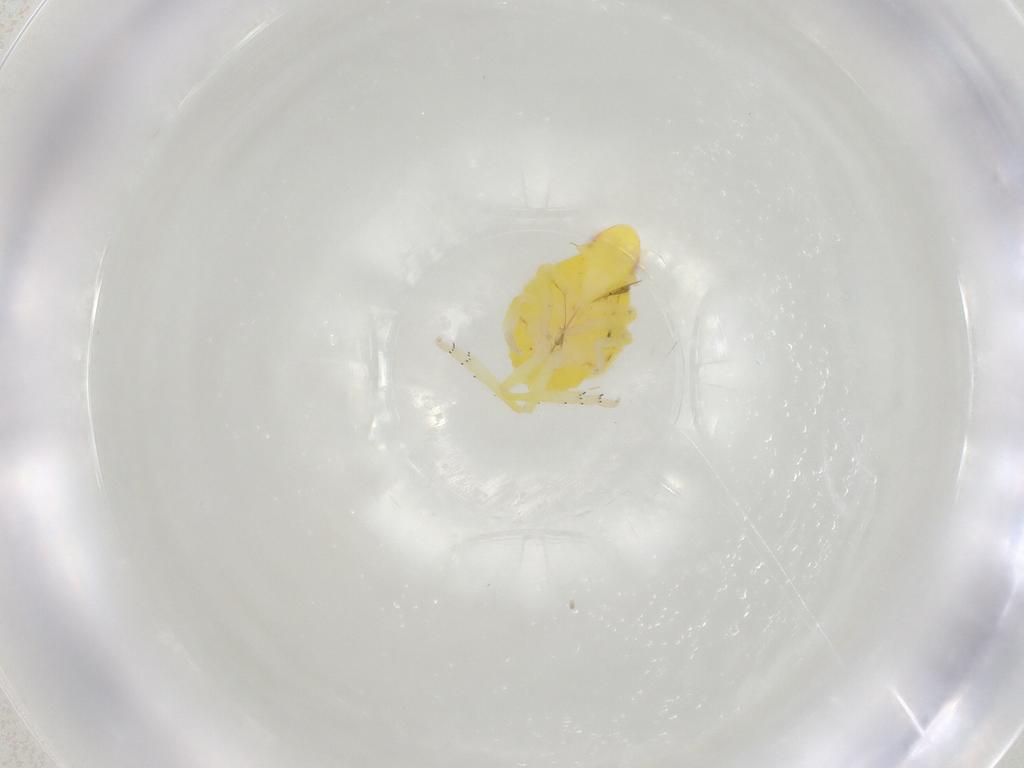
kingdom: Animalia
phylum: Arthropoda
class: Insecta
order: Hemiptera
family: Tropiduchidae
